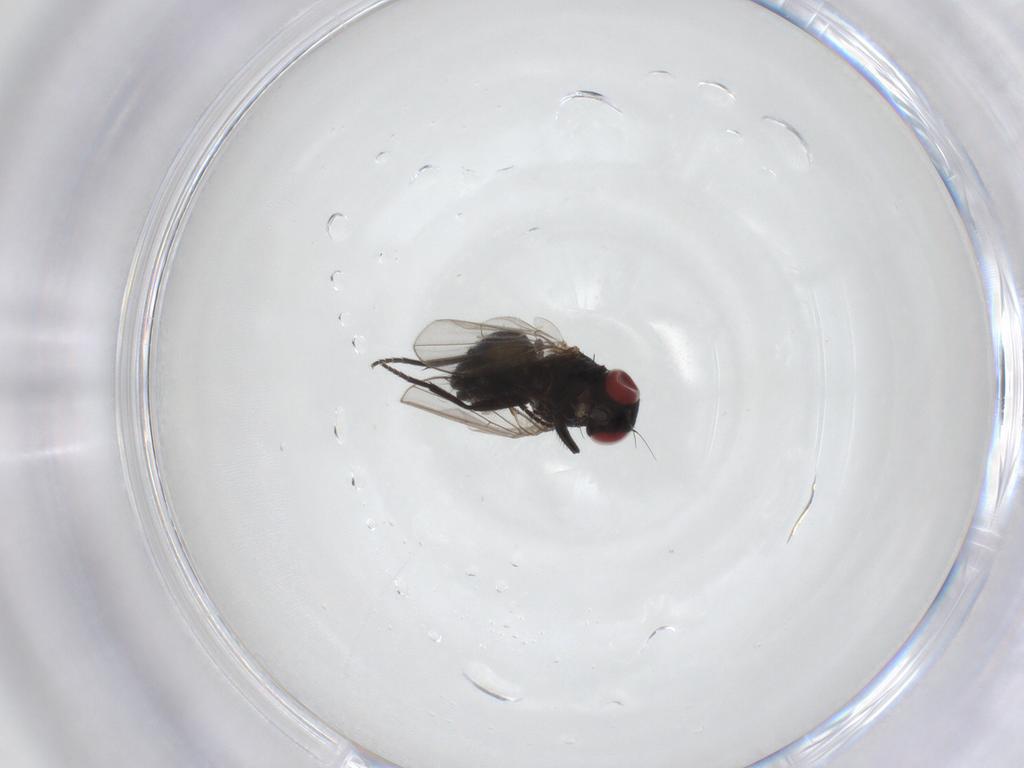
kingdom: Animalia
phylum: Arthropoda
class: Insecta
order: Diptera
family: Agromyzidae
